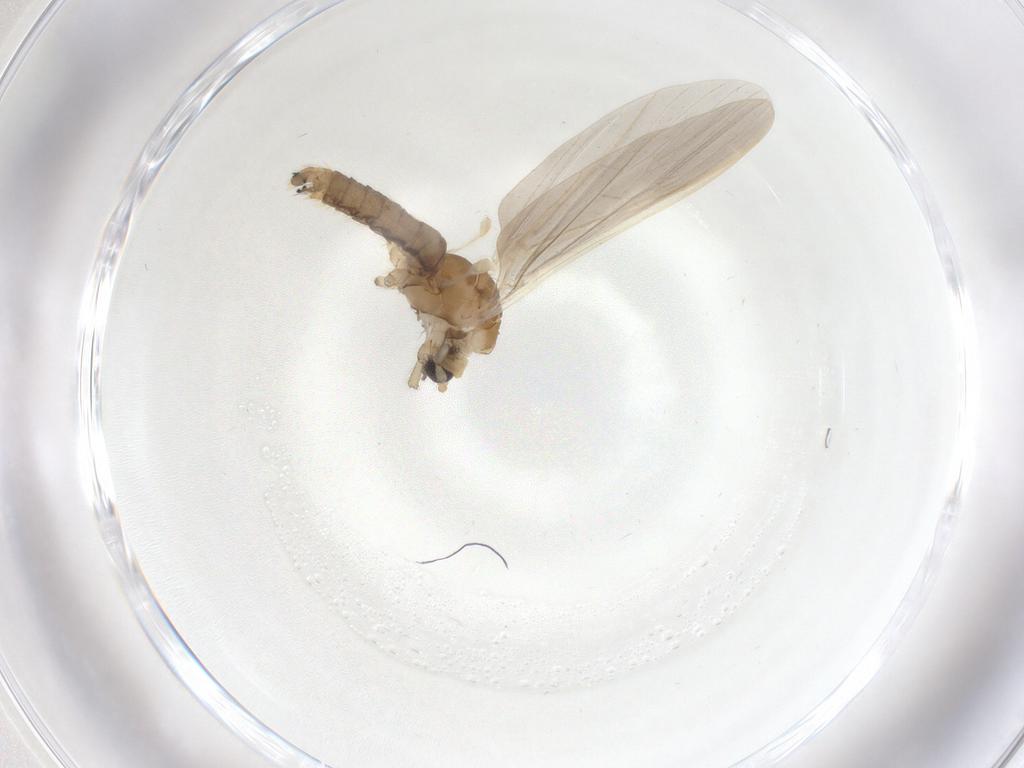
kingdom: Animalia
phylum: Arthropoda
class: Insecta
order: Diptera
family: Limoniidae
